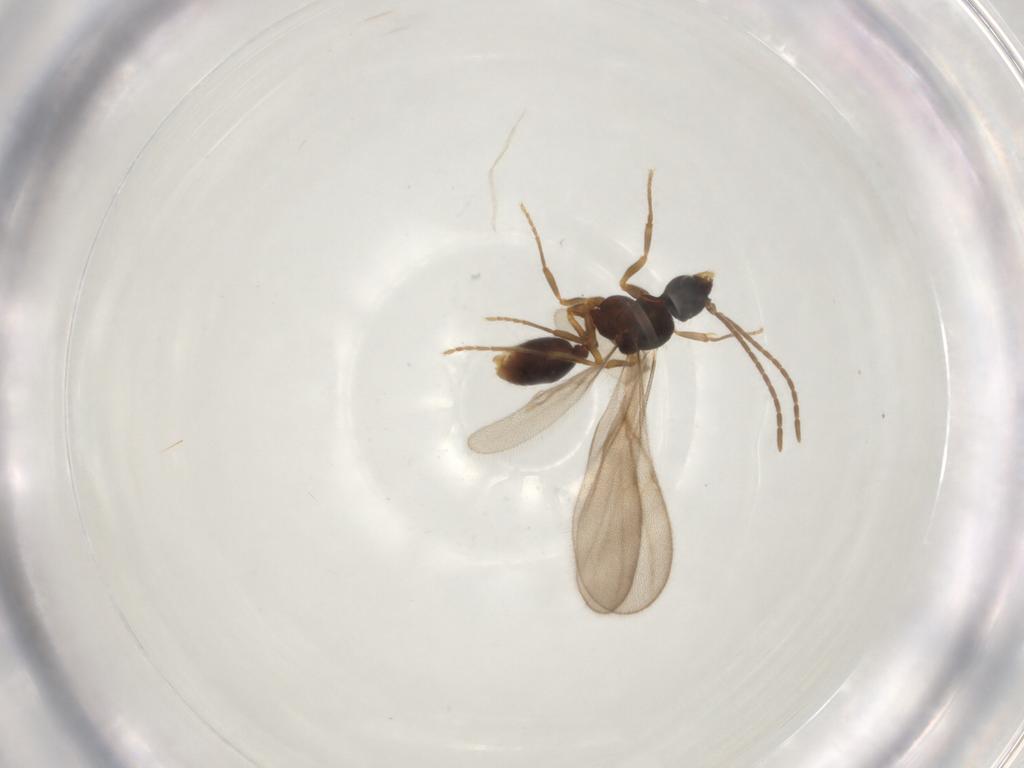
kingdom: Animalia
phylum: Arthropoda
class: Insecta
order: Hymenoptera
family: Formicidae
